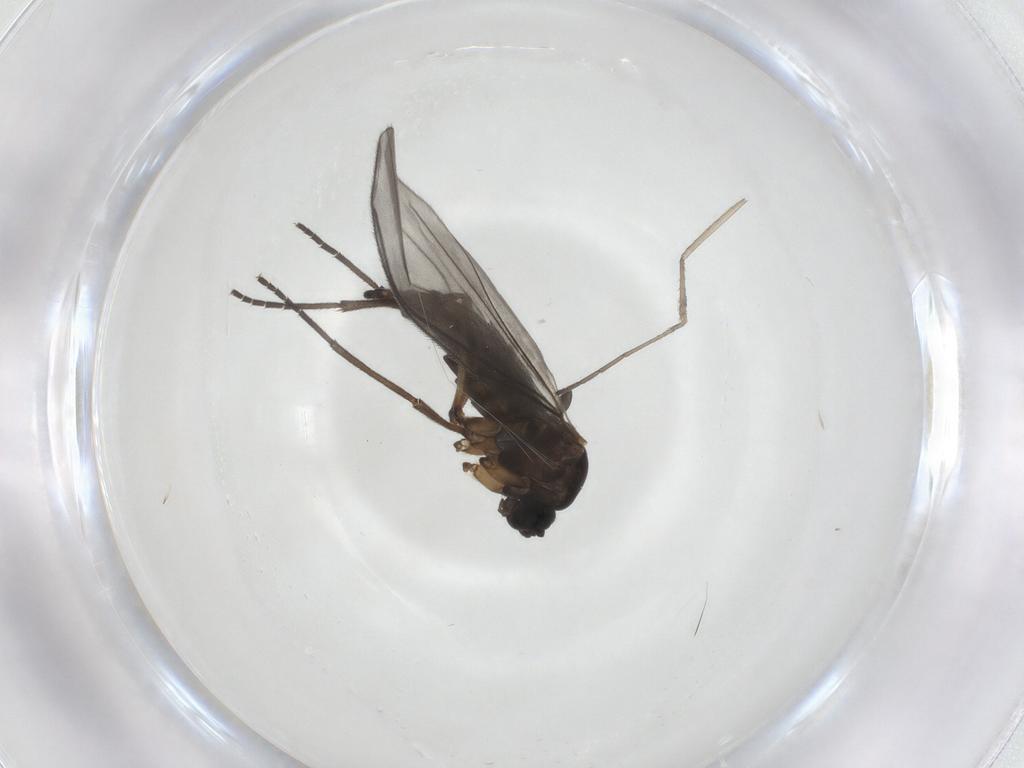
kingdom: Animalia
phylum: Arthropoda
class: Insecta
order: Diptera
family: Sciaridae
